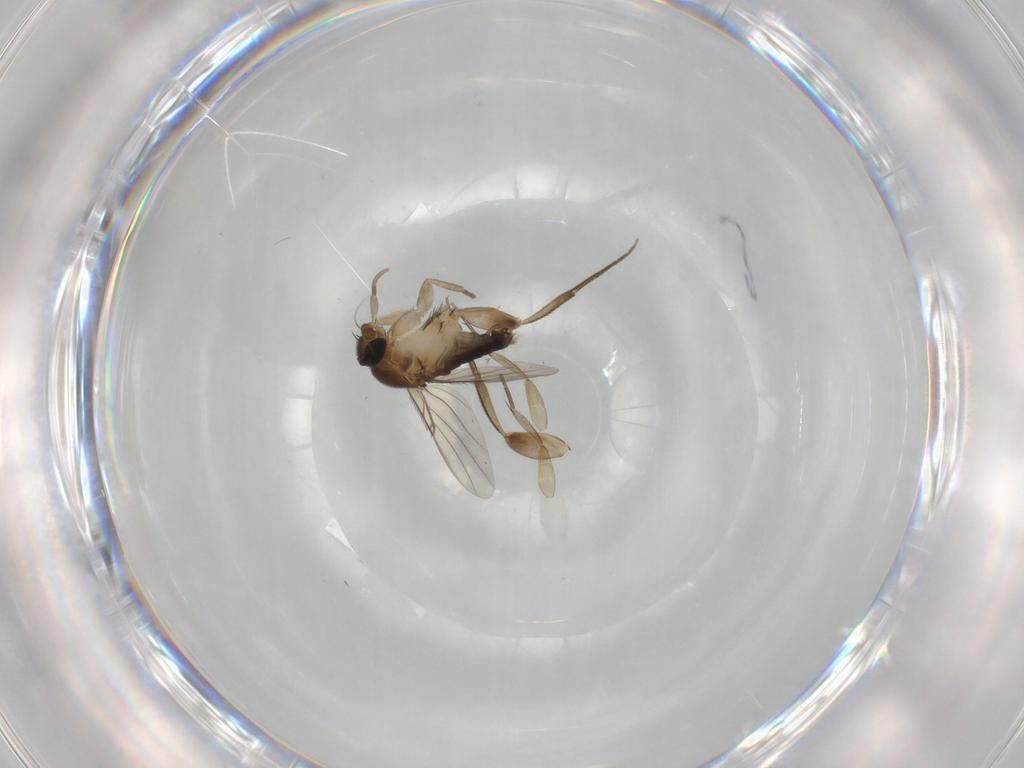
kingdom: Animalia
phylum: Arthropoda
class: Insecta
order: Diptera
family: Phoridae
